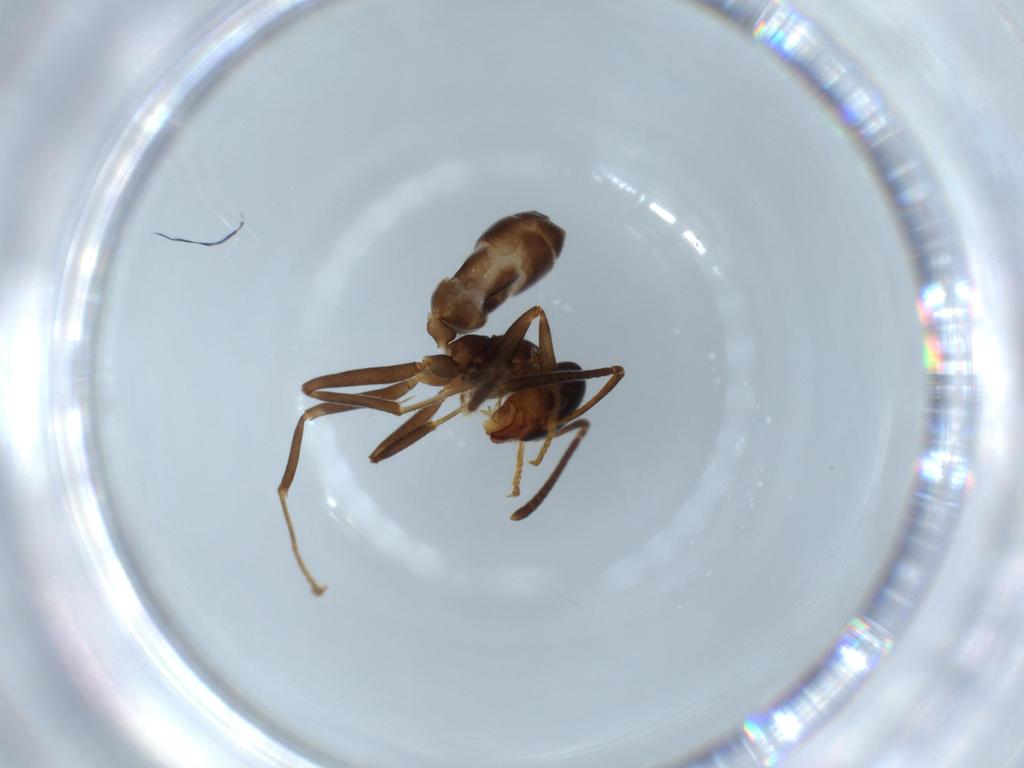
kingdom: Animalia
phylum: Arthropoda
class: Insecta
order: Hymenoptera
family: Formicidae
